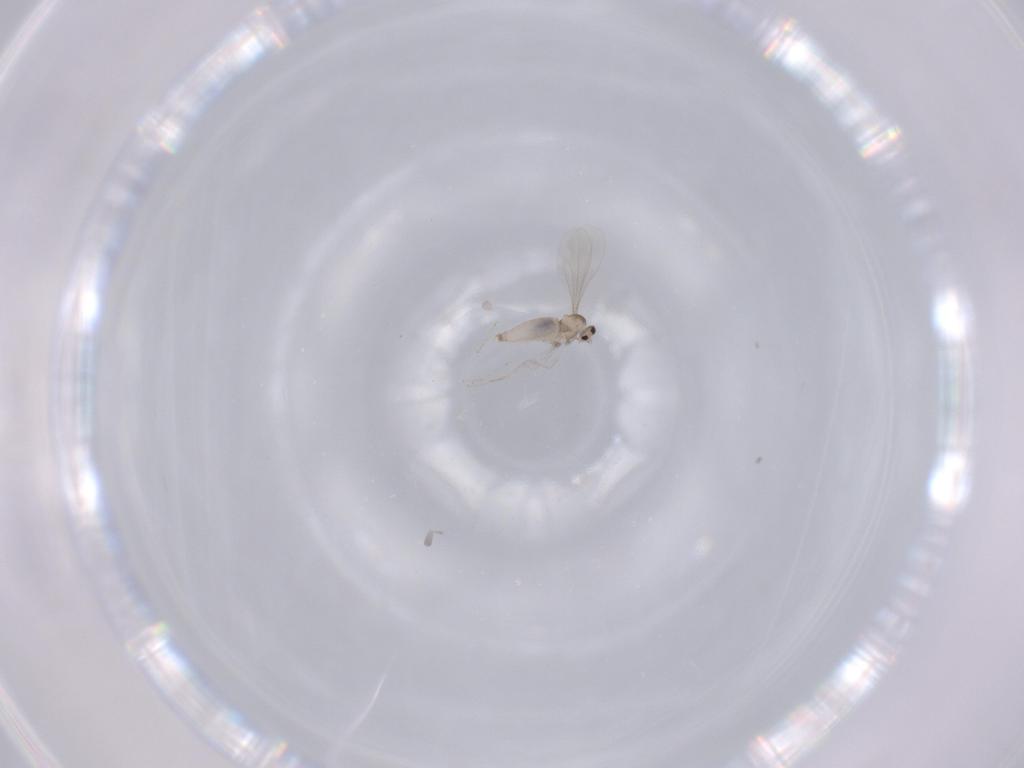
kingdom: Animalia
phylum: Arthropoda
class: Insecta
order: Diptera
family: Cecidomyiidae
